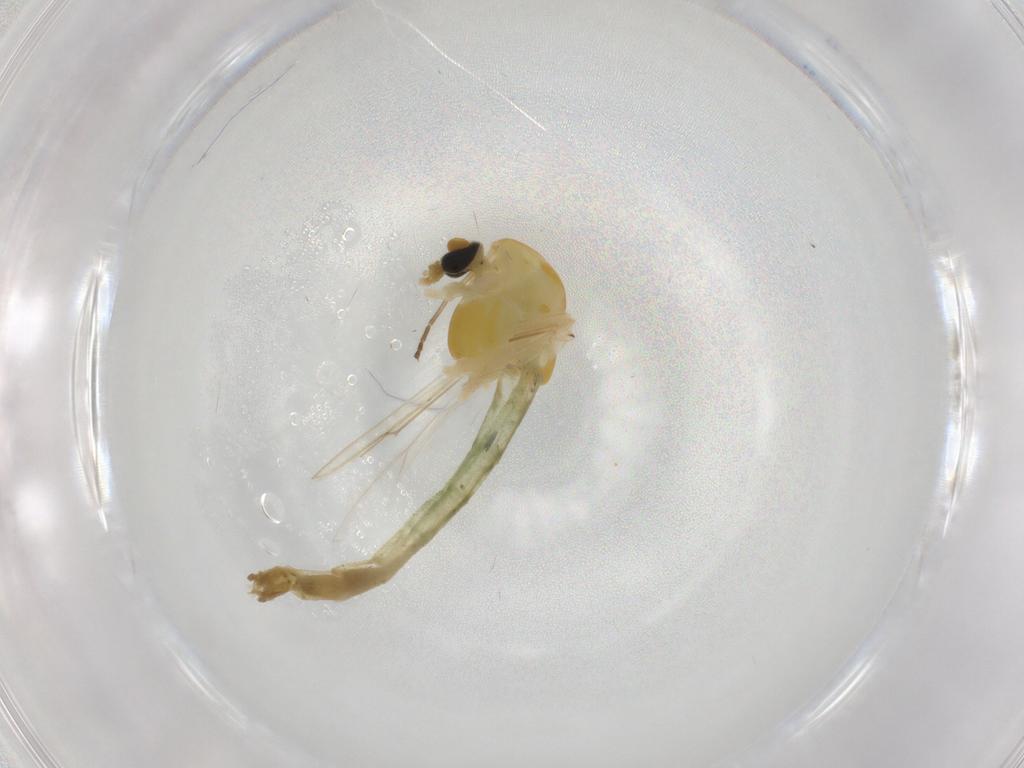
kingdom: Animalia
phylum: Arthropoda
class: Insecta
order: Diptera
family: Chironomidae
